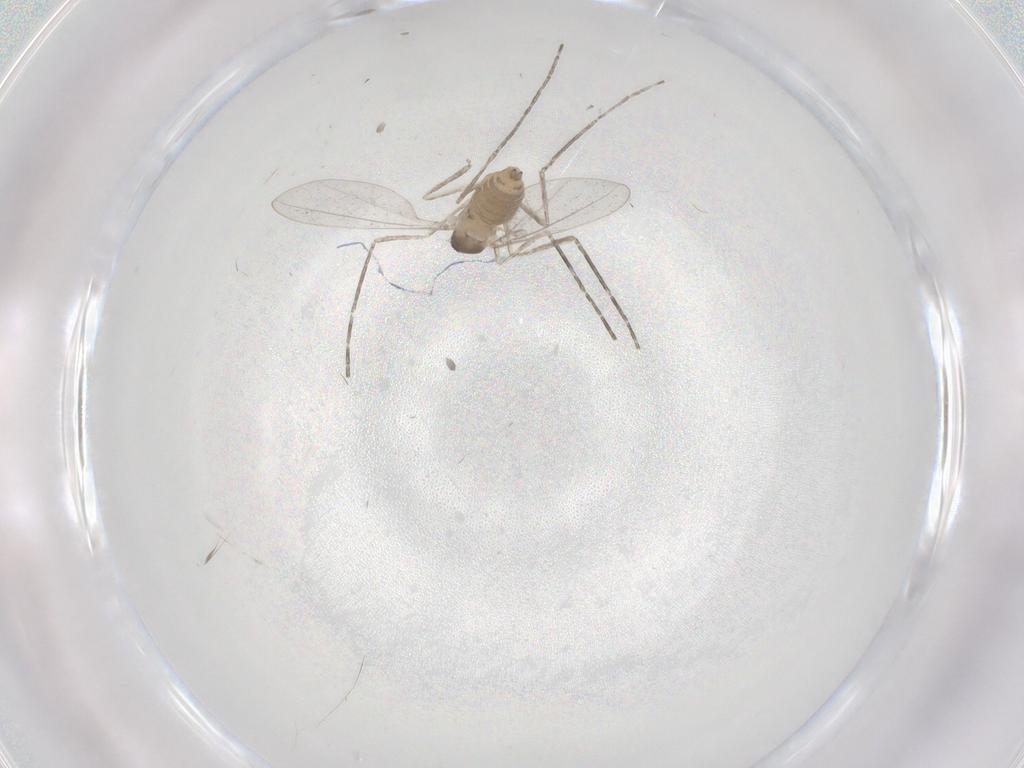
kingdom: Animalia
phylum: Arthropoda
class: Insecta
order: Diptera
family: Cecidomyiidae
